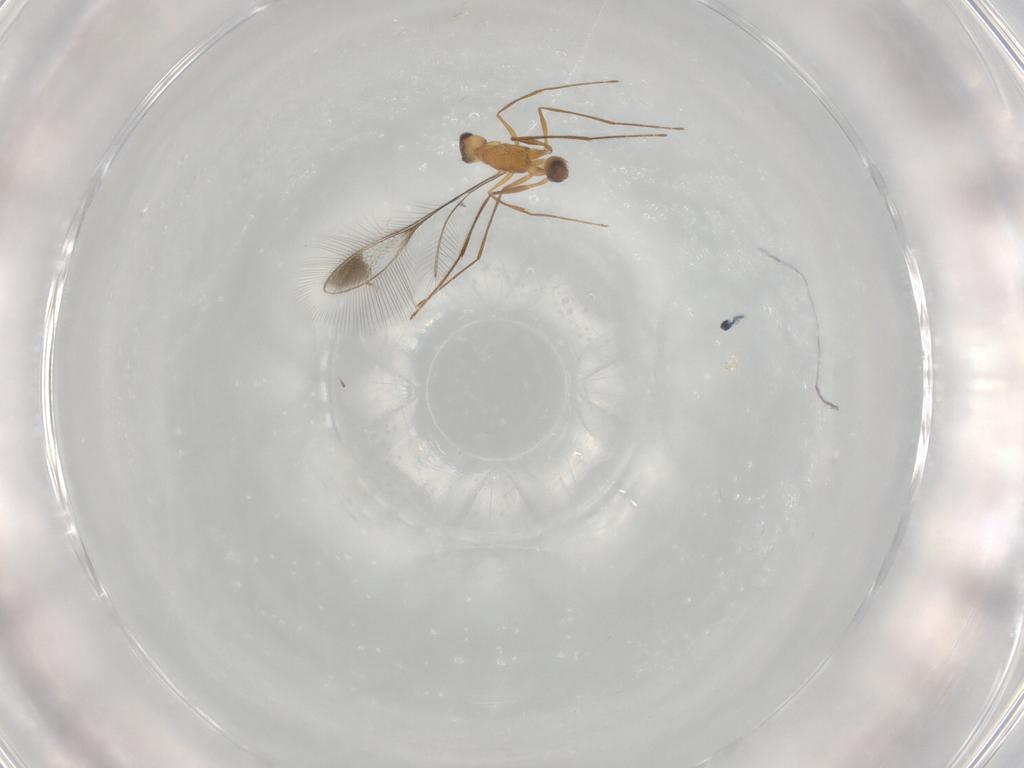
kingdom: Animalia
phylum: Arthropoda
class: Insecta
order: Hymenoptera
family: Mymaridae
